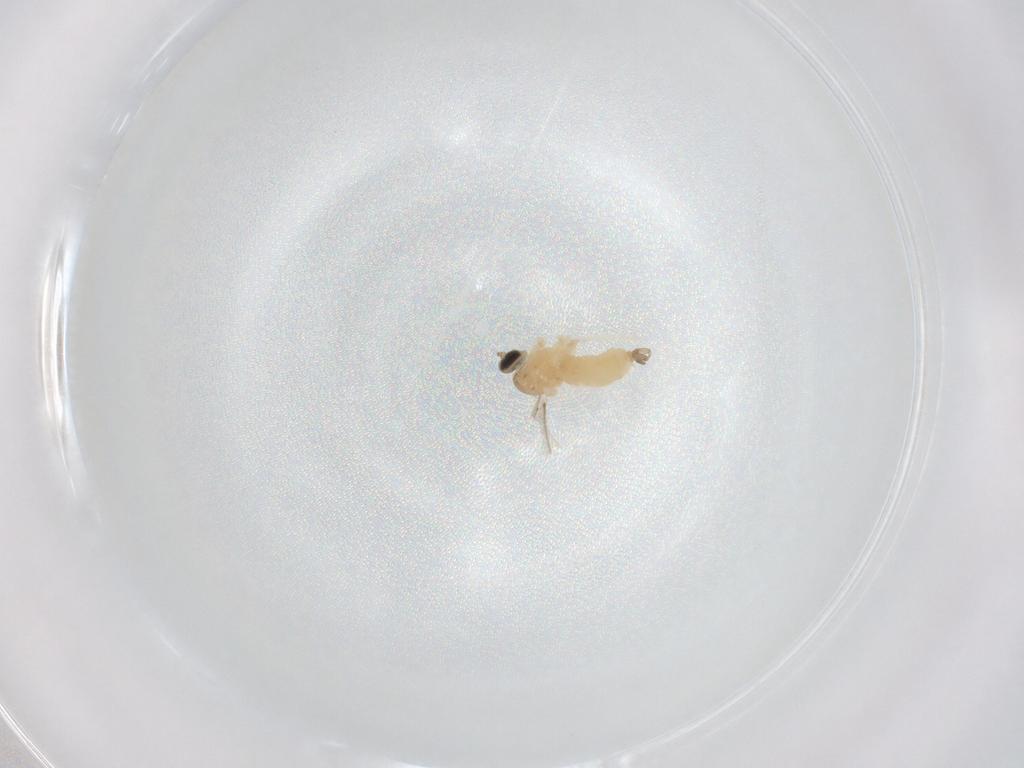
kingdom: Animalia
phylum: Arthropoda
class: Insecta
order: Diptera
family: Cecidomyiidae
